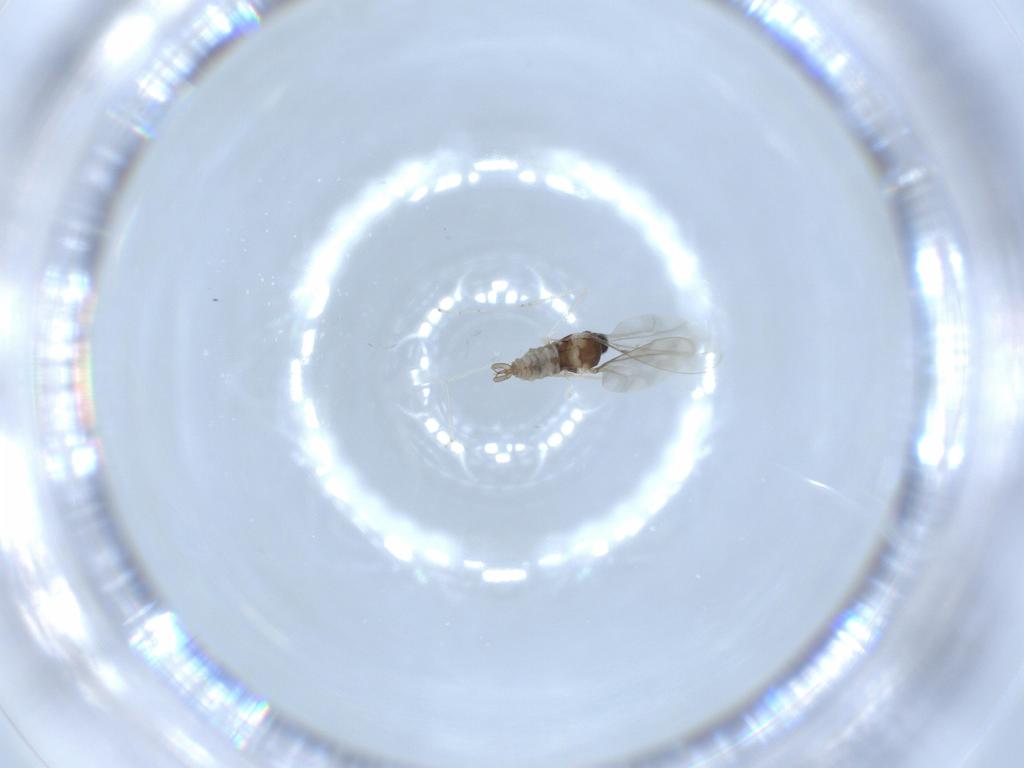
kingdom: Animalia
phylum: Arthropoda
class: Insecta
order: Diptera
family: Cecidomyiidae
